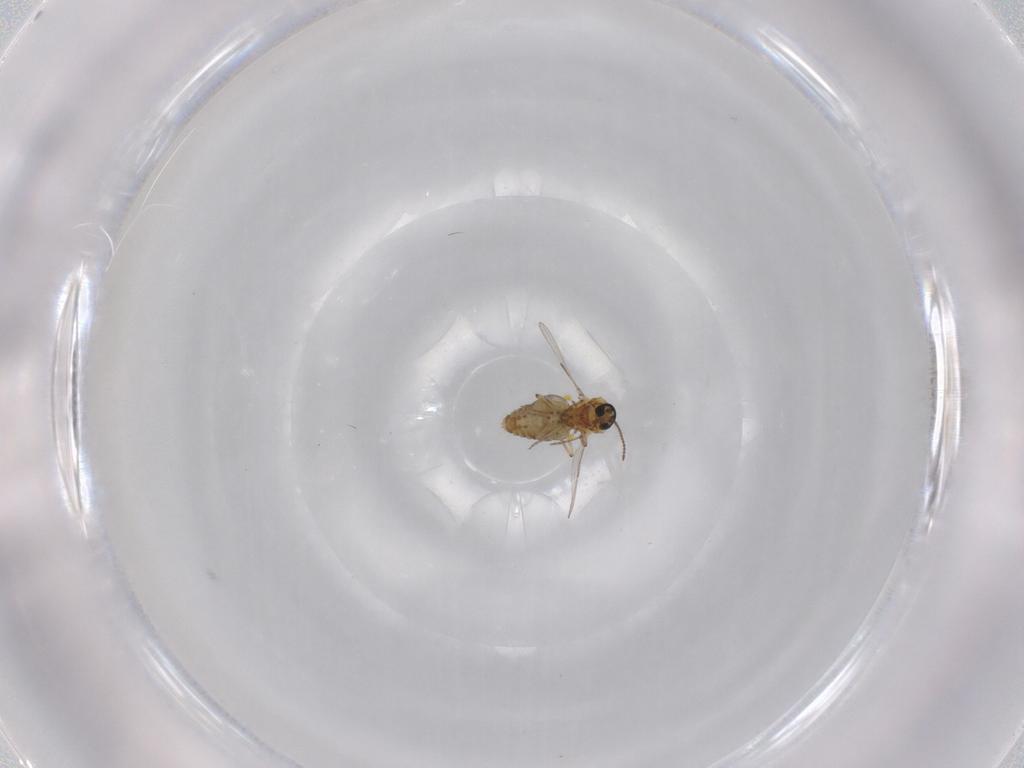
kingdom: Animalia
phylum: Arthropoda
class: Insecta
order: Diptera
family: Ceratopogonidae
